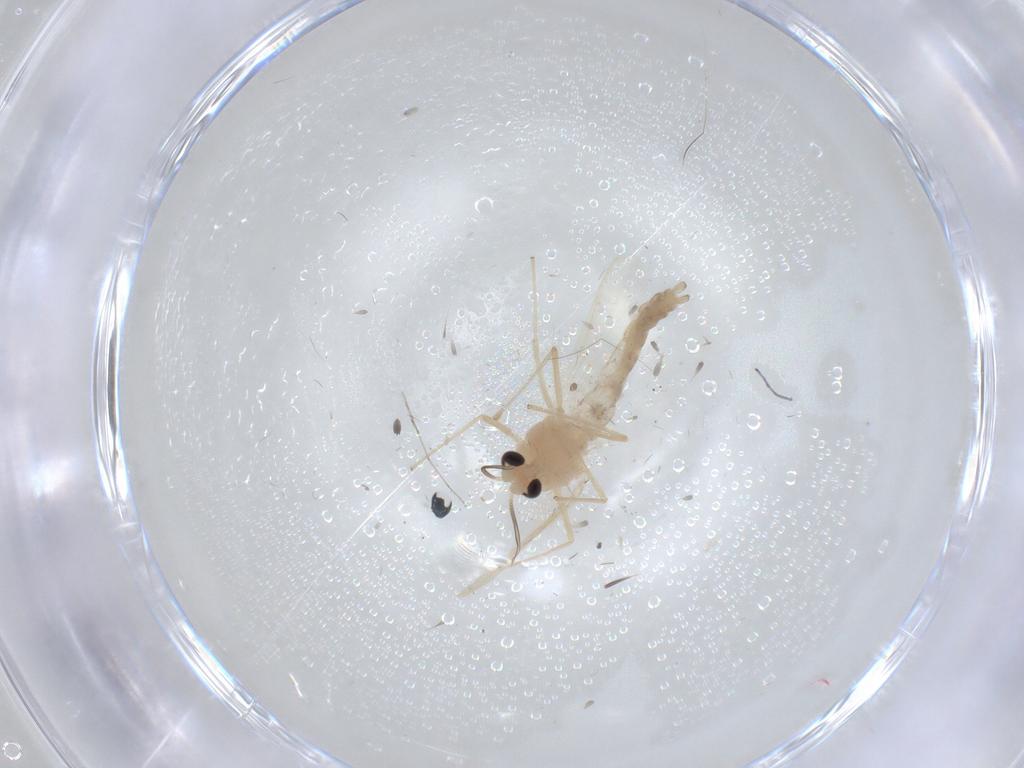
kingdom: Animalia
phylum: Arthropoda
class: Insecta
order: Diptera
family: Chironomidae
